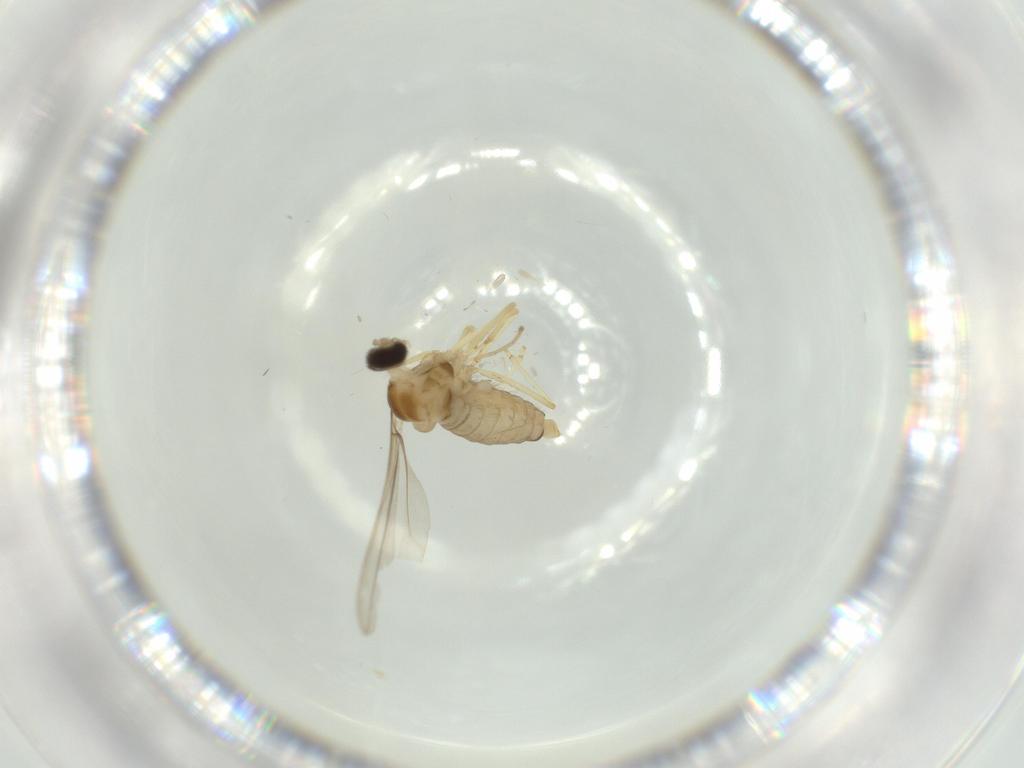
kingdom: Animalia
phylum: Arthropoda
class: Insecta
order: Diptera
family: Cecidomyiidae
